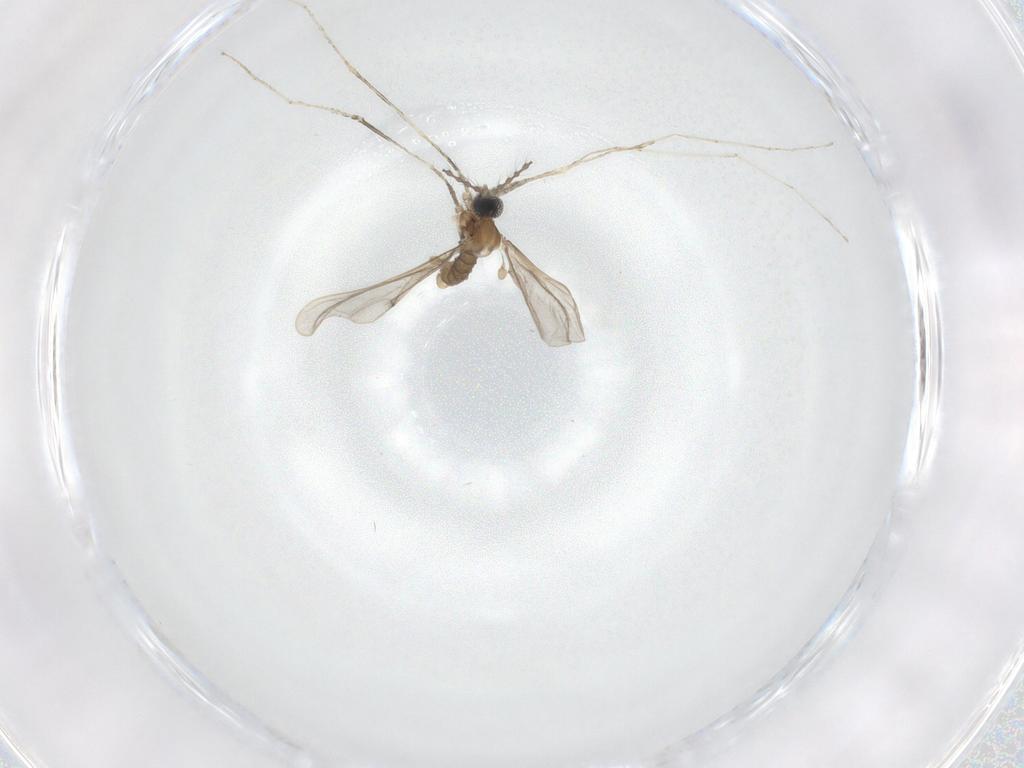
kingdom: Animalia
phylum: Arthropoda
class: Insecta
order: Diptera
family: Cecidomyiidae
